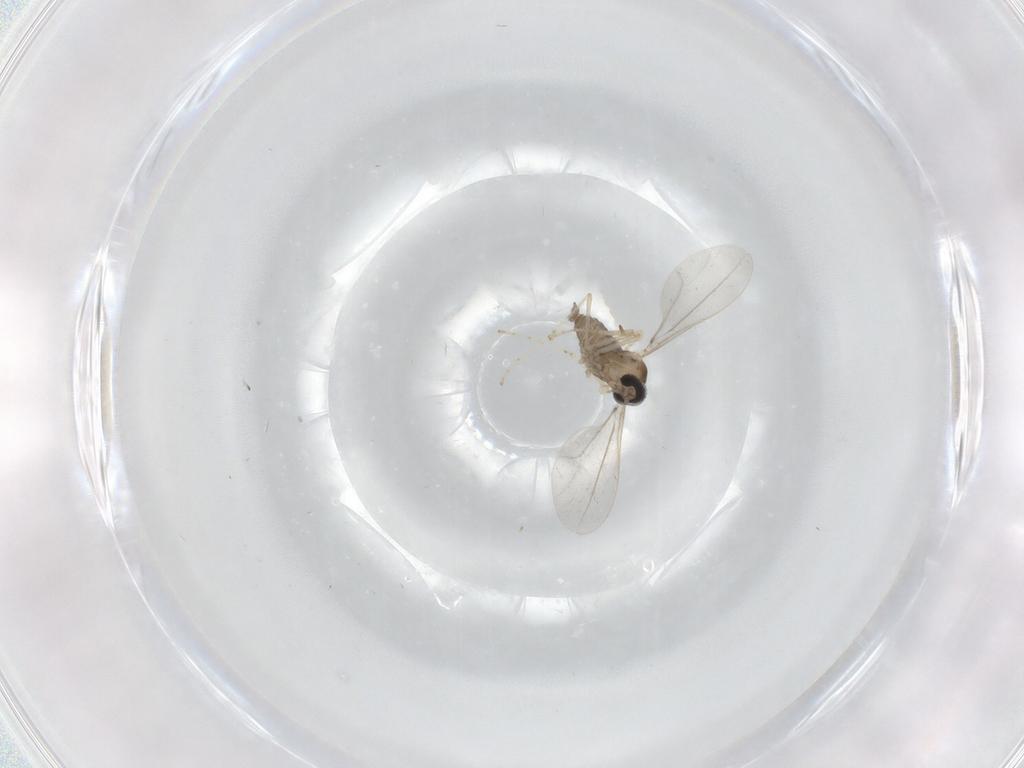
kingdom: Animalia
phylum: Arthropoda
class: Insecta
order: Diptera
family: Cecidomyiidae
